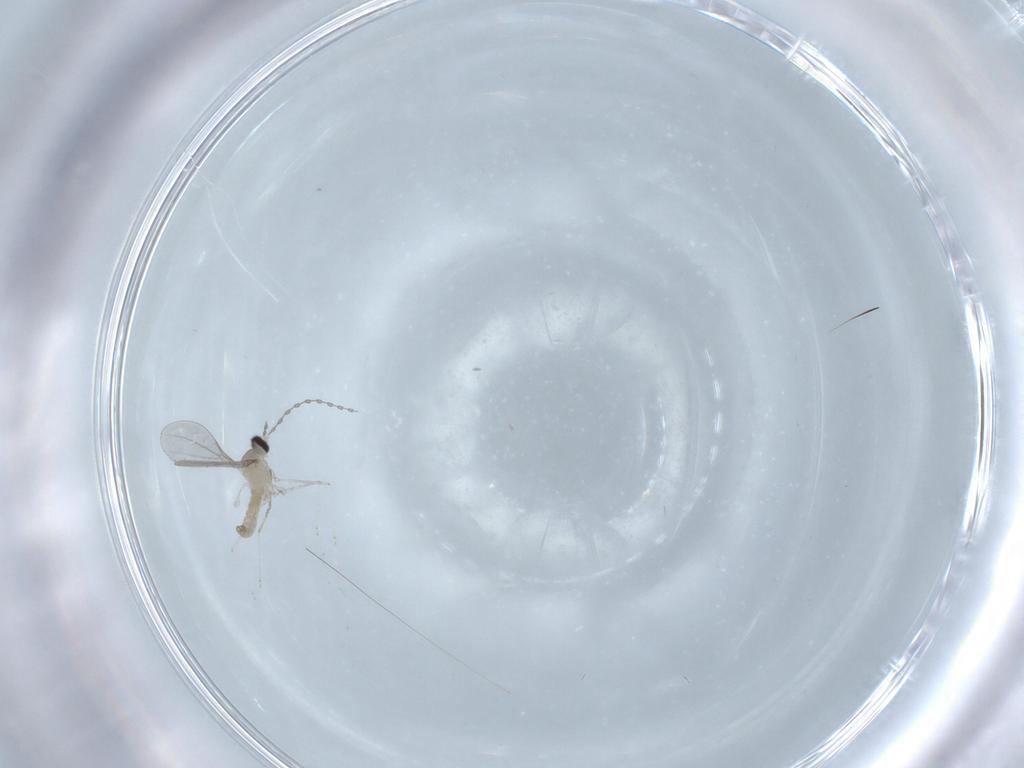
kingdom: Animalia
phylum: Arthropoda
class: Insecta
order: Diptera
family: Cecidomyiidae
